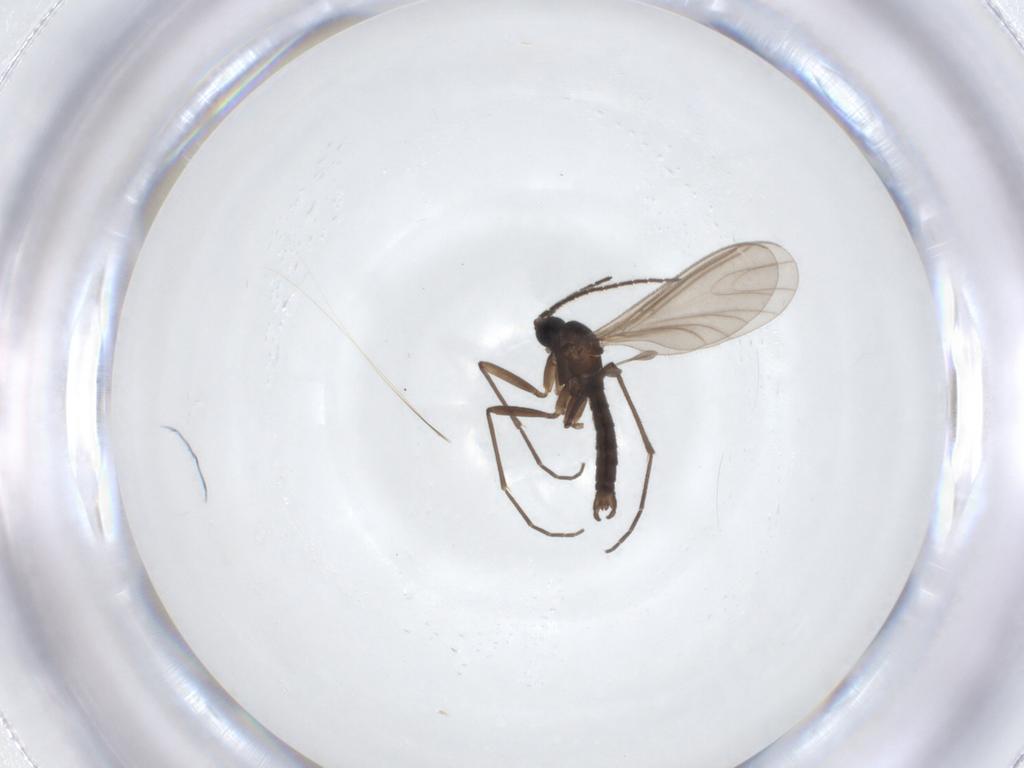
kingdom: Animalia
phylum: Arthropoda
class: Insecta
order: Diptera
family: Sciaridae
